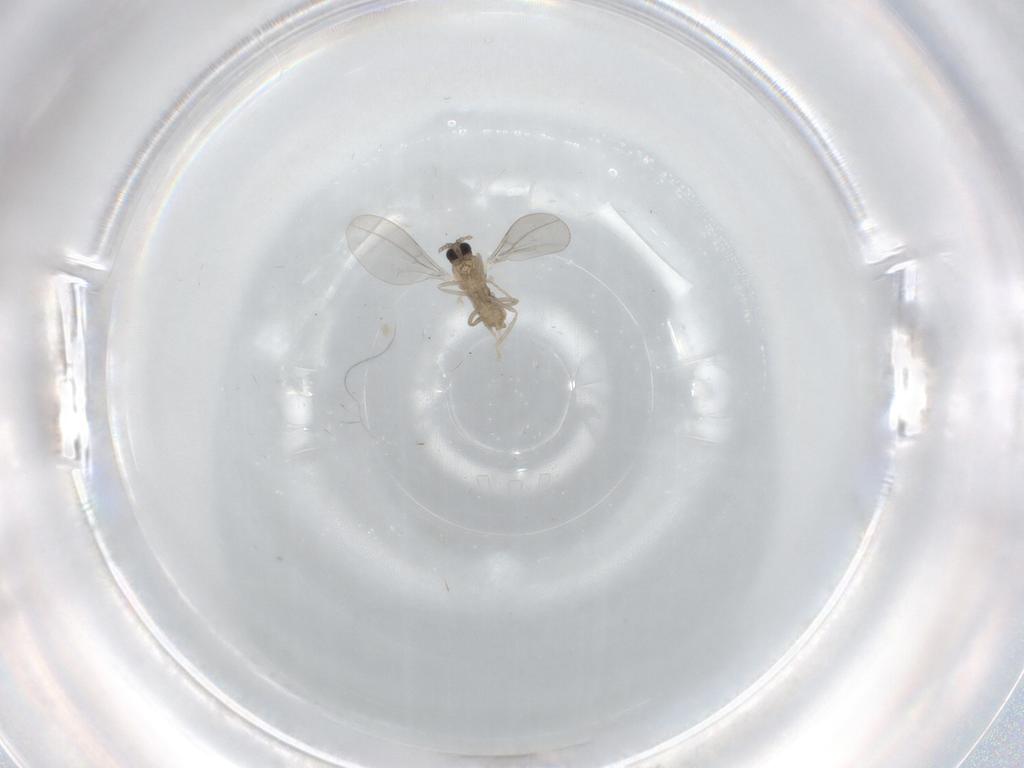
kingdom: Animalia
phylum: Arthropoda
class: Insecta
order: Diptera
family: Cecidomyiidae
